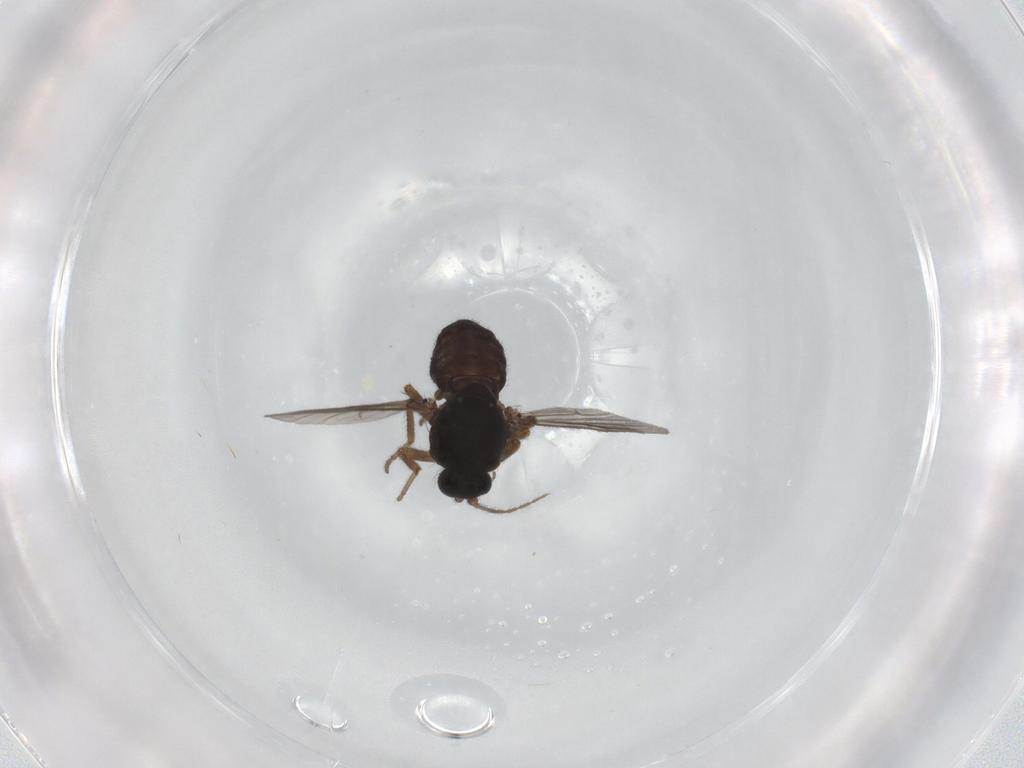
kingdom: Animalia
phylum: Arthropoda
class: Insecta
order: Diptera
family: Ceratopogonidae
